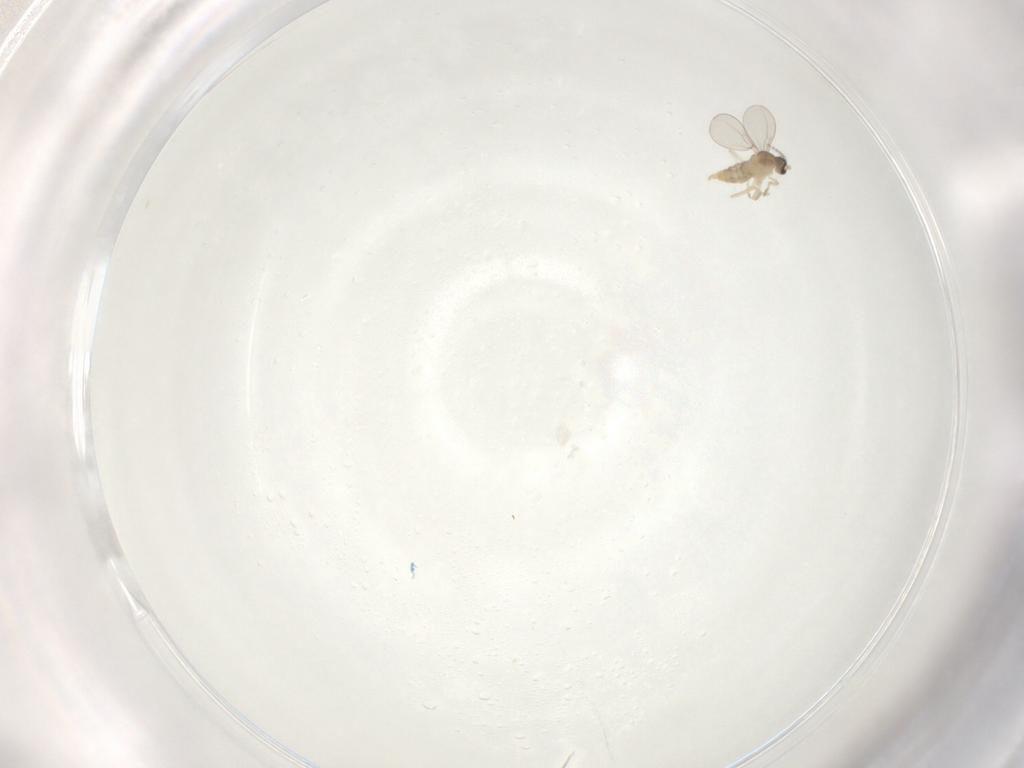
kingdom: Animalia
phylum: Arthropoda
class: Insecta
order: Diptera
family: Cecidomyiidae
